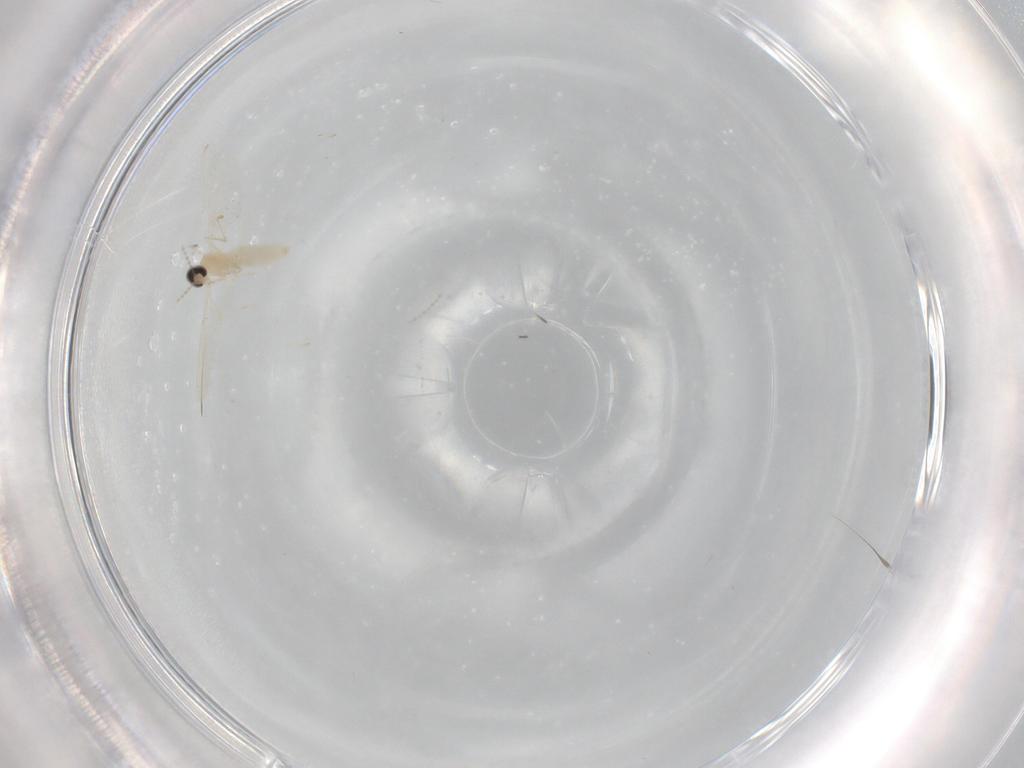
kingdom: Animalia
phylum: Arthropoda
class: Insecta
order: Diptera
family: Cecidomyiidae
